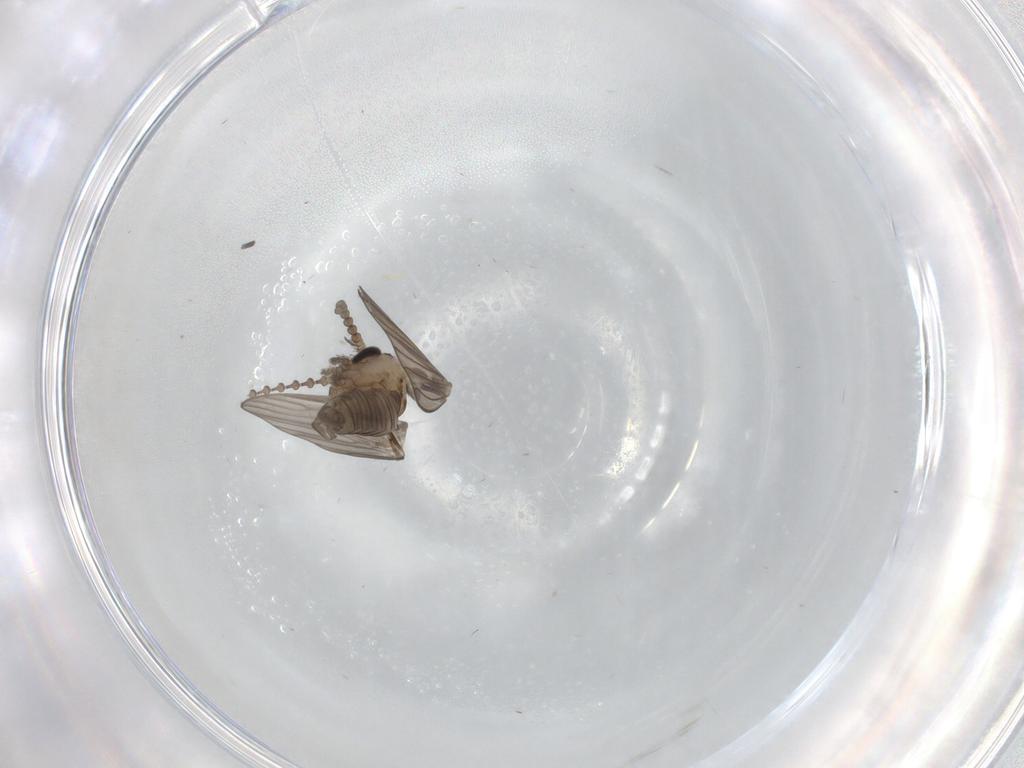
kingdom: Animalia
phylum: Arthropoda
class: Insecta
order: Diptera
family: Psychodidae
